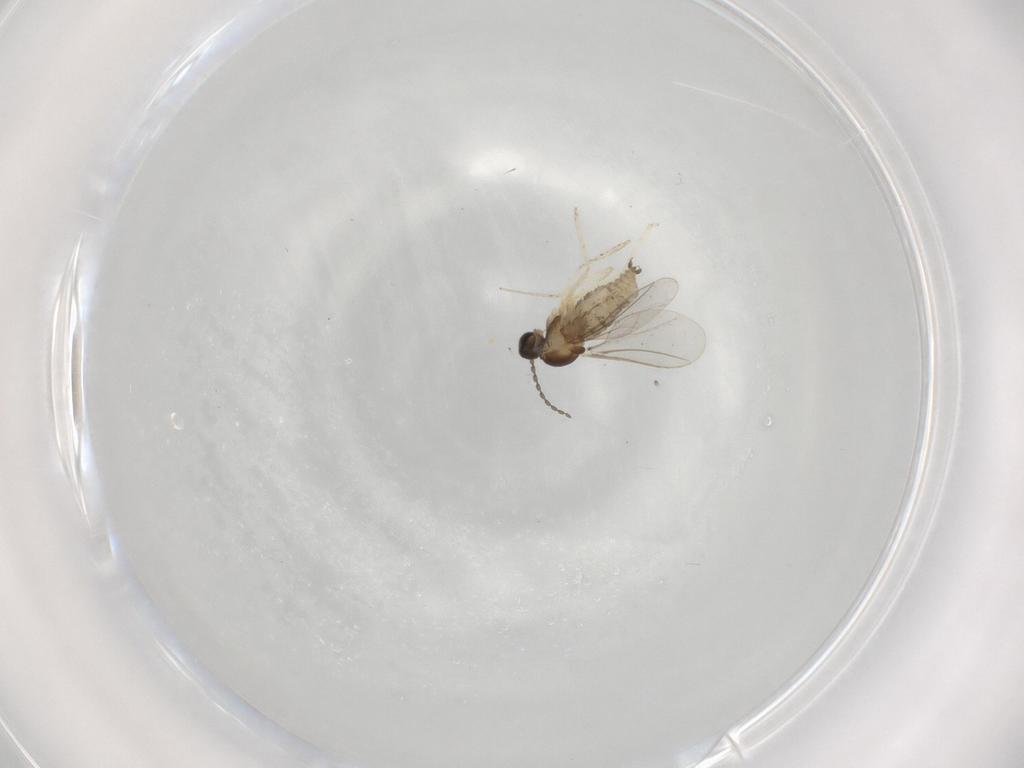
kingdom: Animalia
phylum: Arthropoda
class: Insecta
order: Diptera
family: Cecidomyiidae
